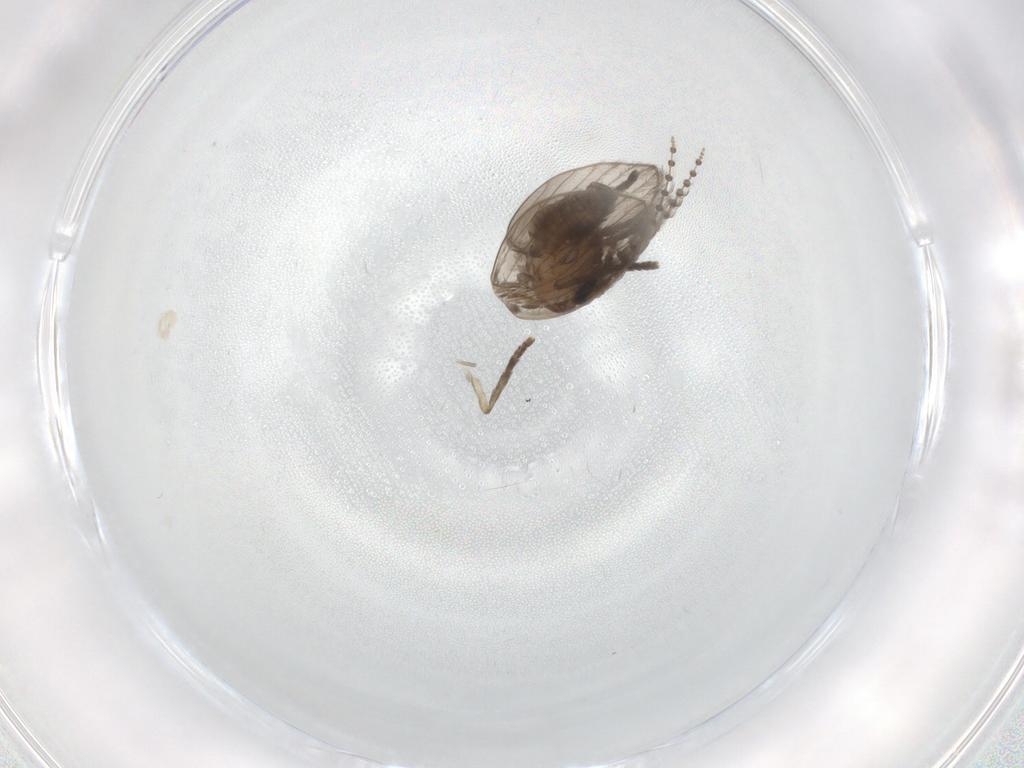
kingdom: Animalia
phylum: Arthropoda
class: Insecta
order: Diptera
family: Psychodidae
